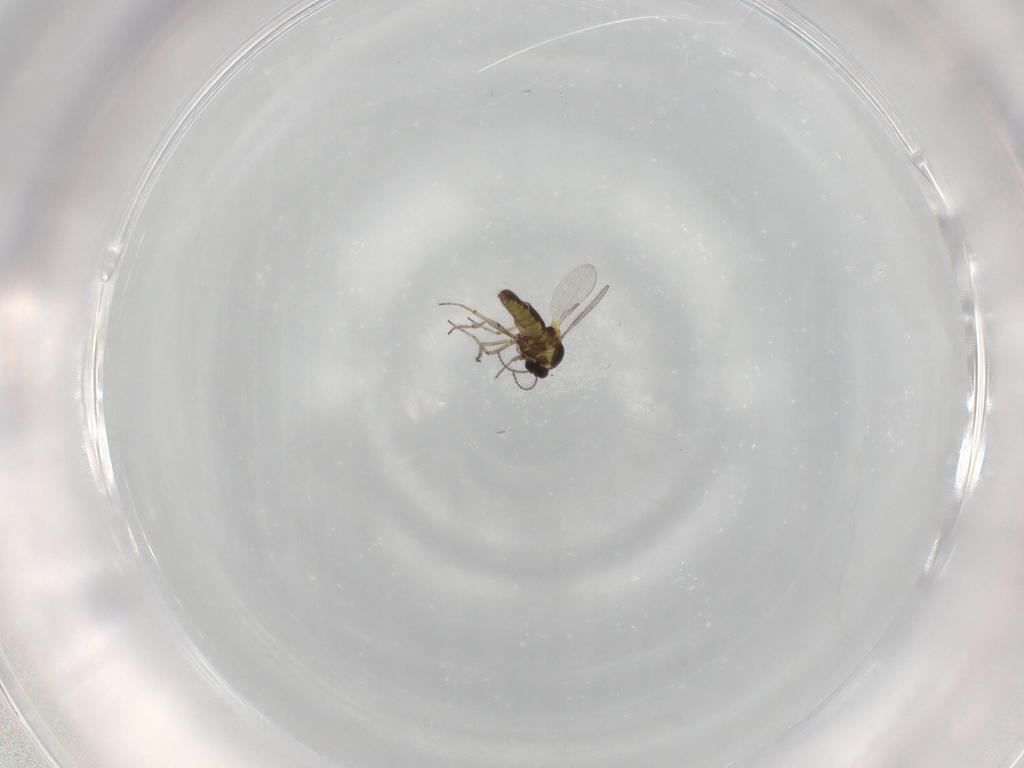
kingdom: Animalia
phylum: Arthropoda
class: Insecta
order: Diptera
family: Ceratopogonidae
